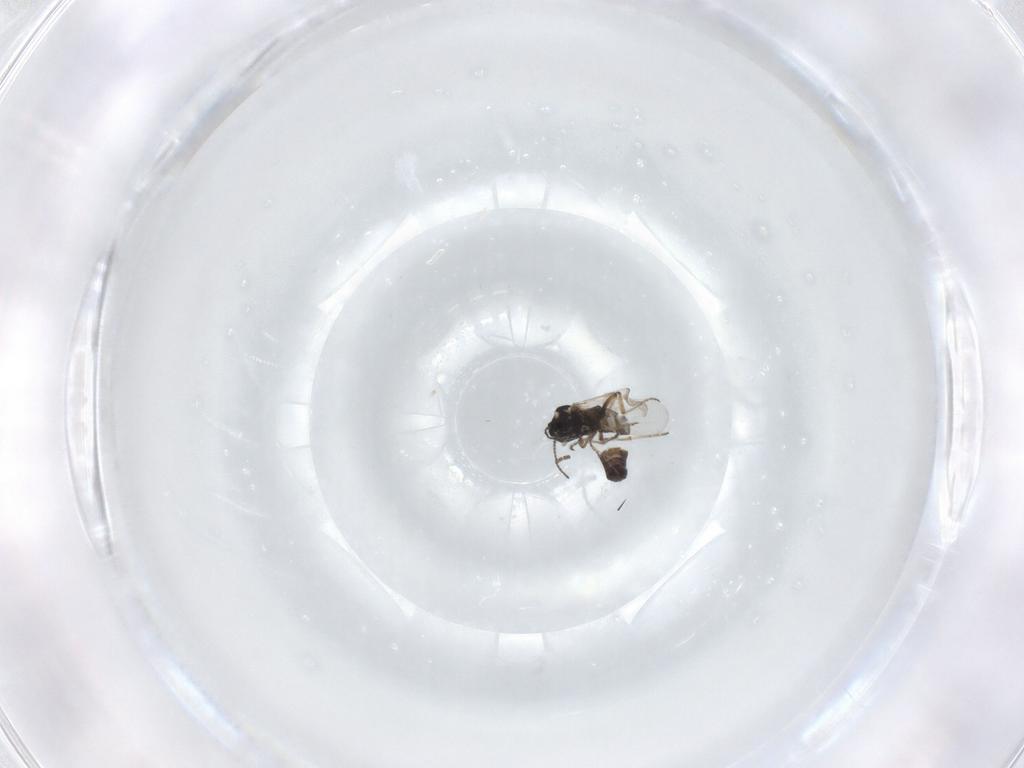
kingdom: Animalia
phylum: Arthropoda
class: Insecta
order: Diptera
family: Ceratopogonidae
